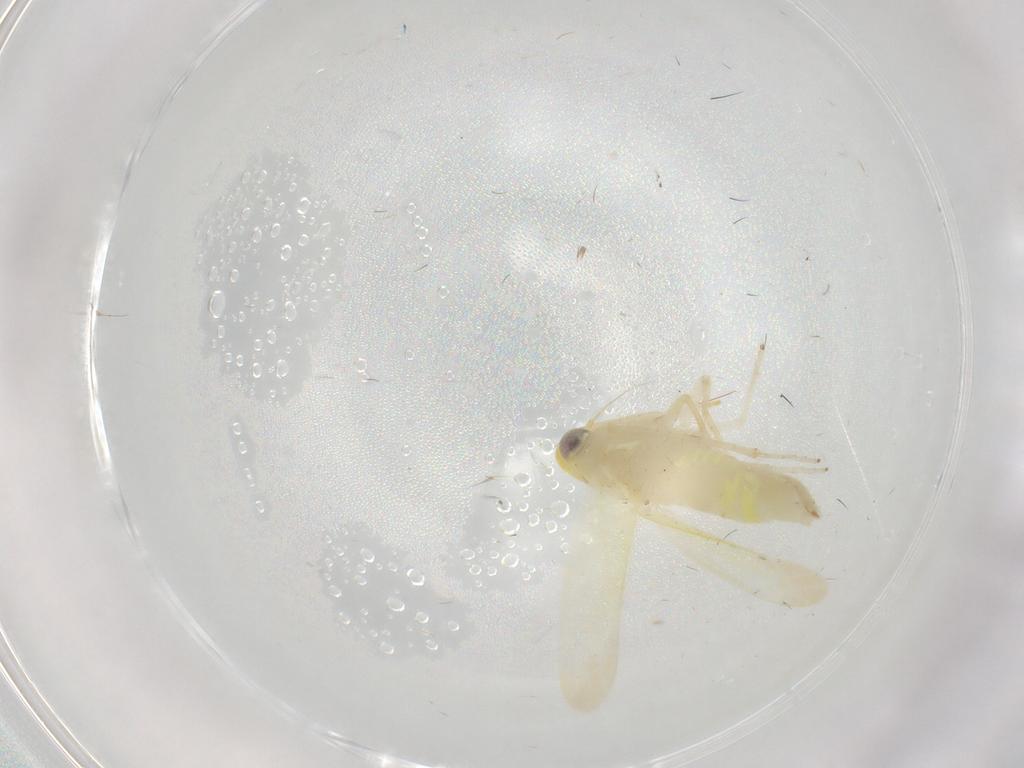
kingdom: Animalia
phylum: Arthropoda
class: Insecta
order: Hemiptera
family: Cicadellidae
